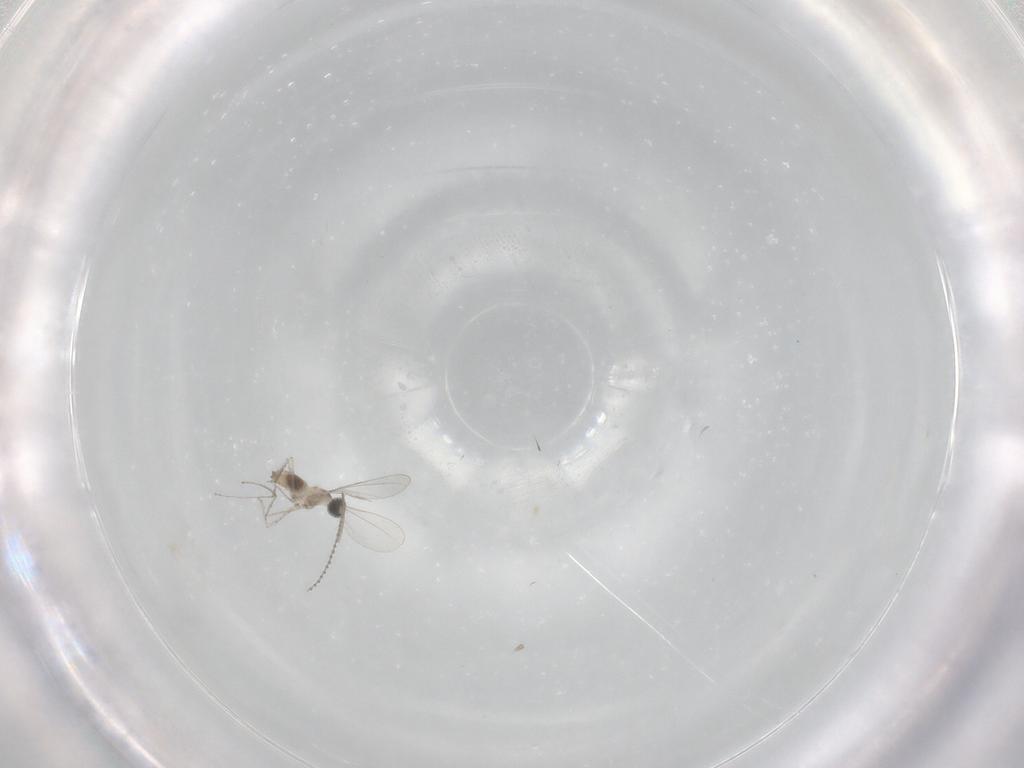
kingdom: Animalia
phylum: Arthropoda
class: Insecta
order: Diptera
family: Cecidomyiidae
